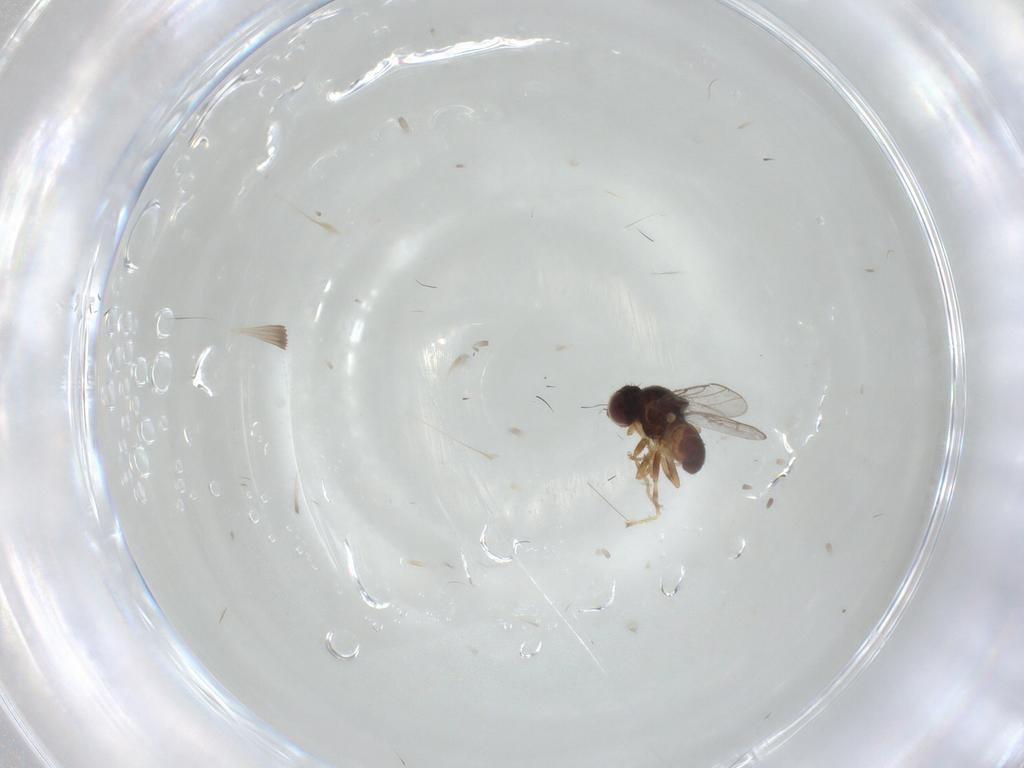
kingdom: Animalia
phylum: Arthropoda
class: Insecta
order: Diptera
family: Chloropidae
